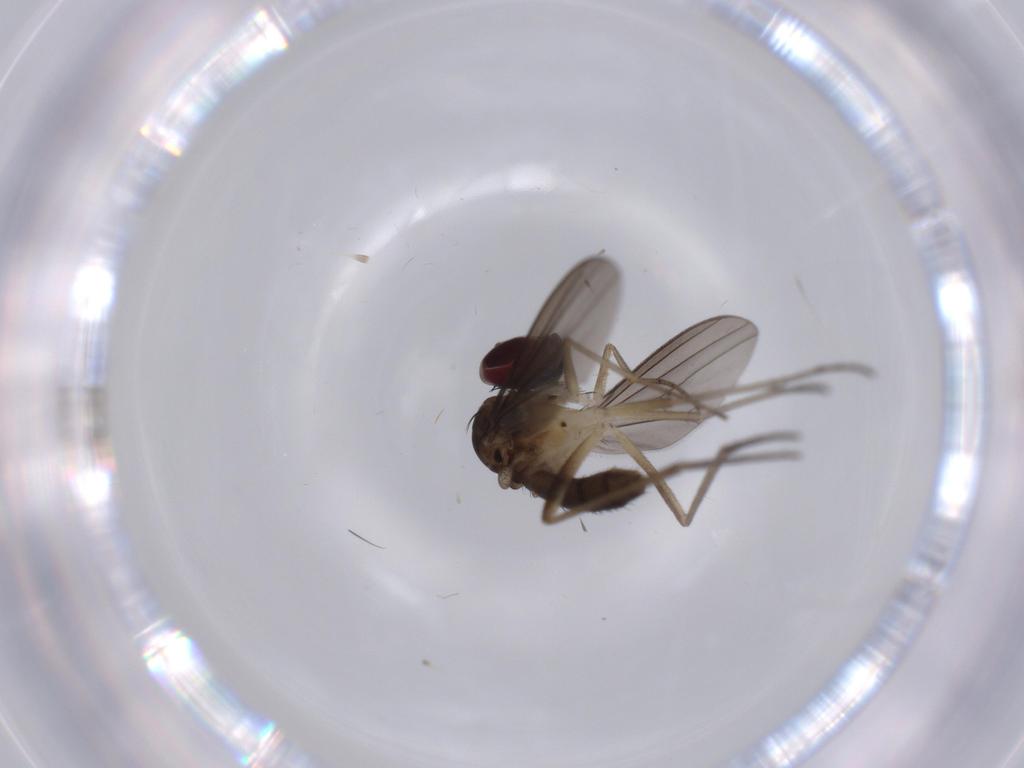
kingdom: Animalia
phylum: Arthropoda
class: Insecta
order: Diptera
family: Dolichopodidae
